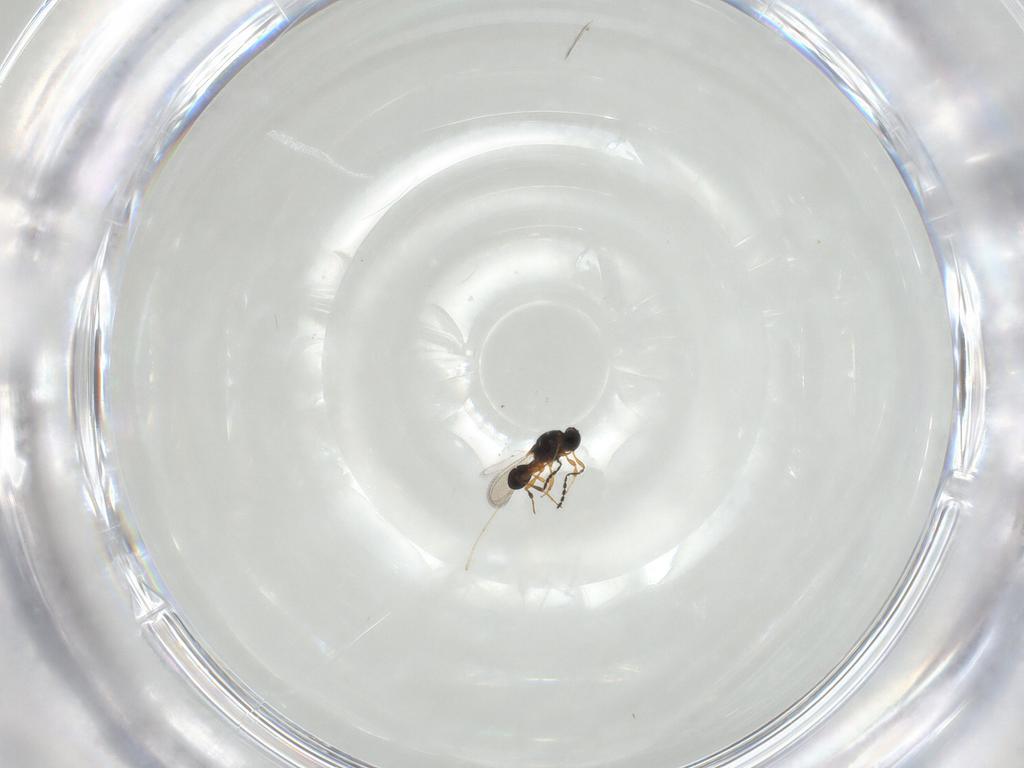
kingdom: Animalia
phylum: Arthropoda
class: Insecta
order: Hymenoptera
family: Platygastridae
